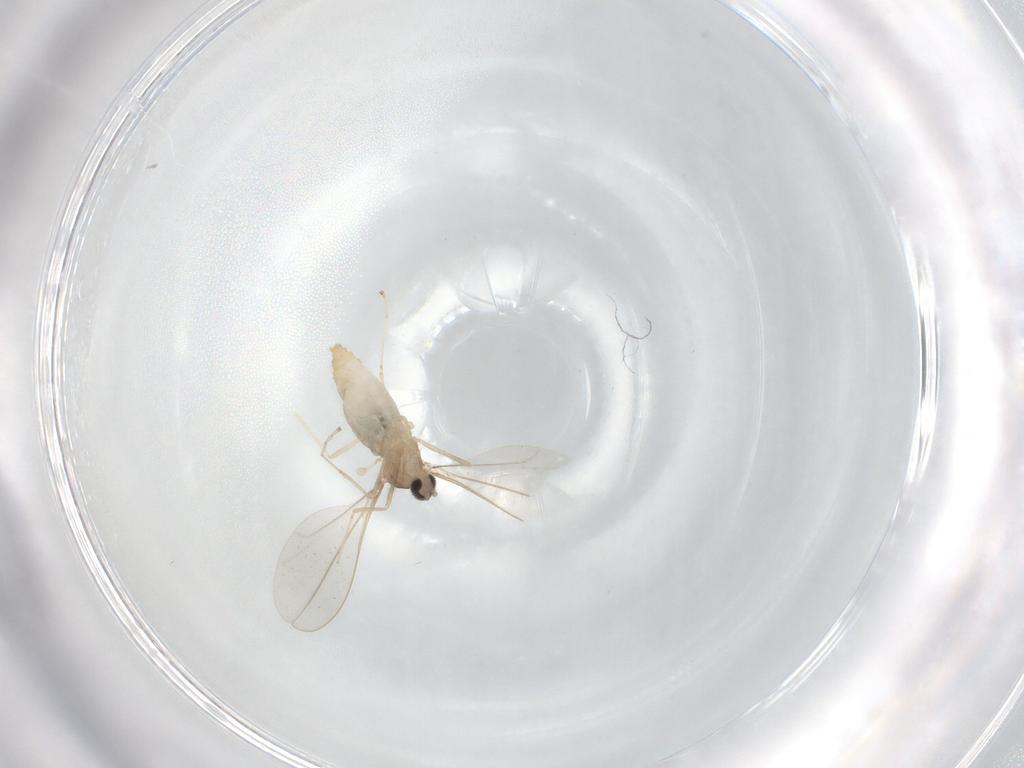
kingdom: Animalia
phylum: Arthropoda
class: Insecta
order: Diptera
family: Cecidomyiidae
